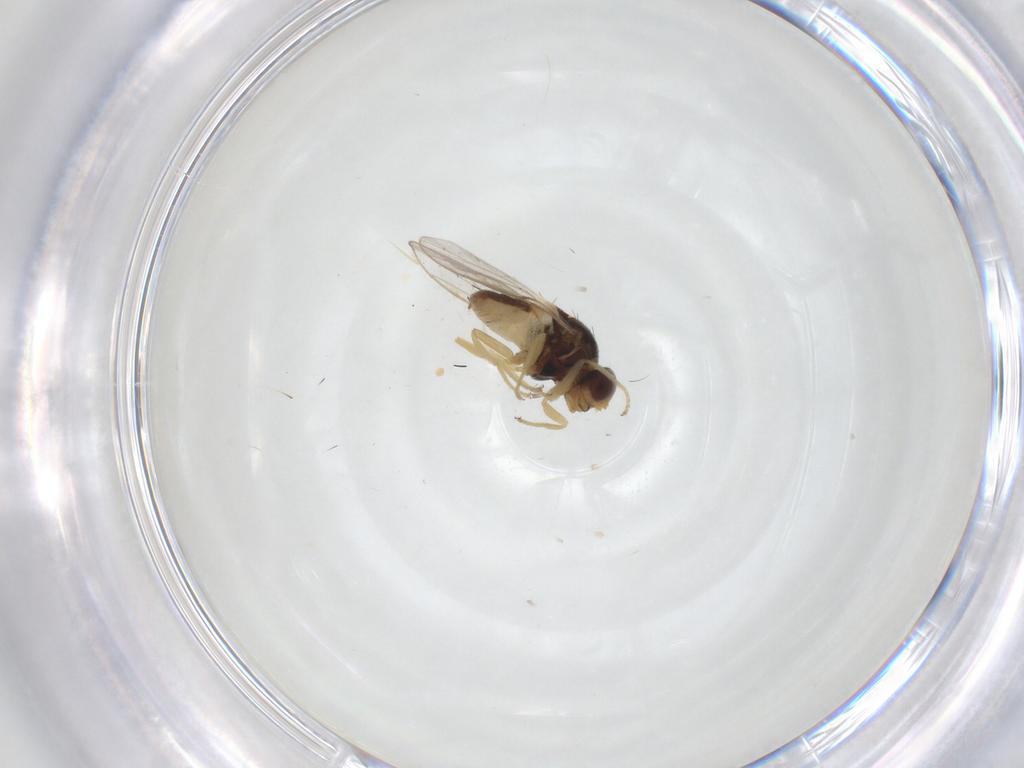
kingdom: Animalia
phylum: Arthropoda
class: Insecta
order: Diptera
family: Chloropidae
